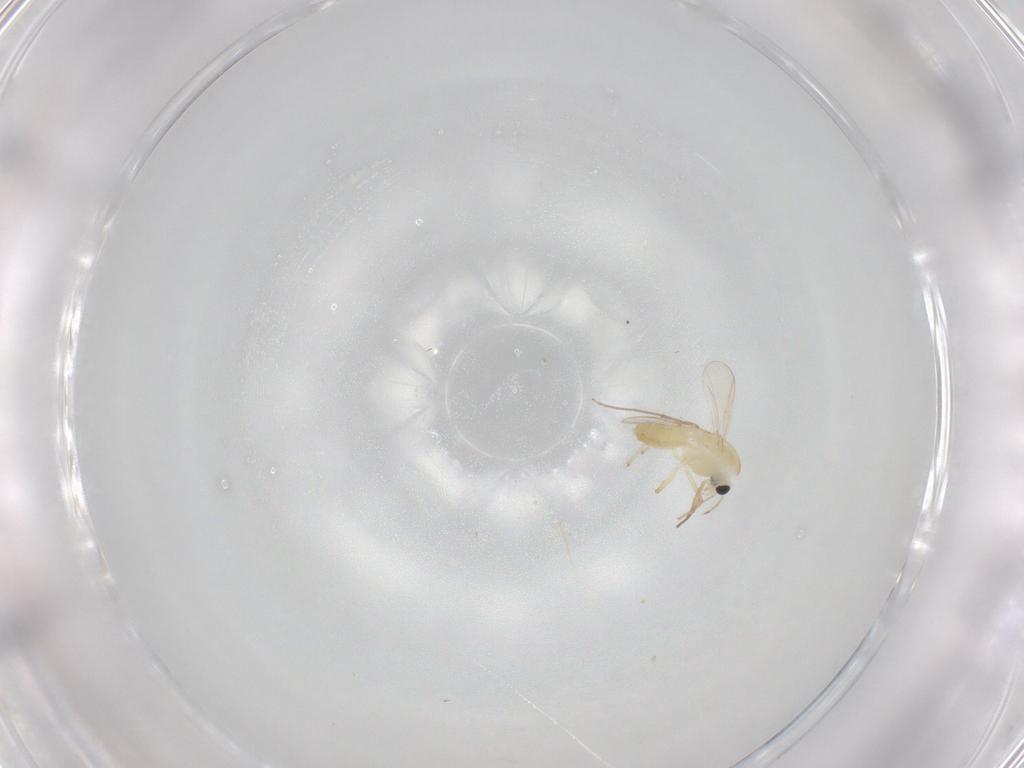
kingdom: Animalia
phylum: Arthropoda
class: Insecta
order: Diptera
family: Chironomidae
